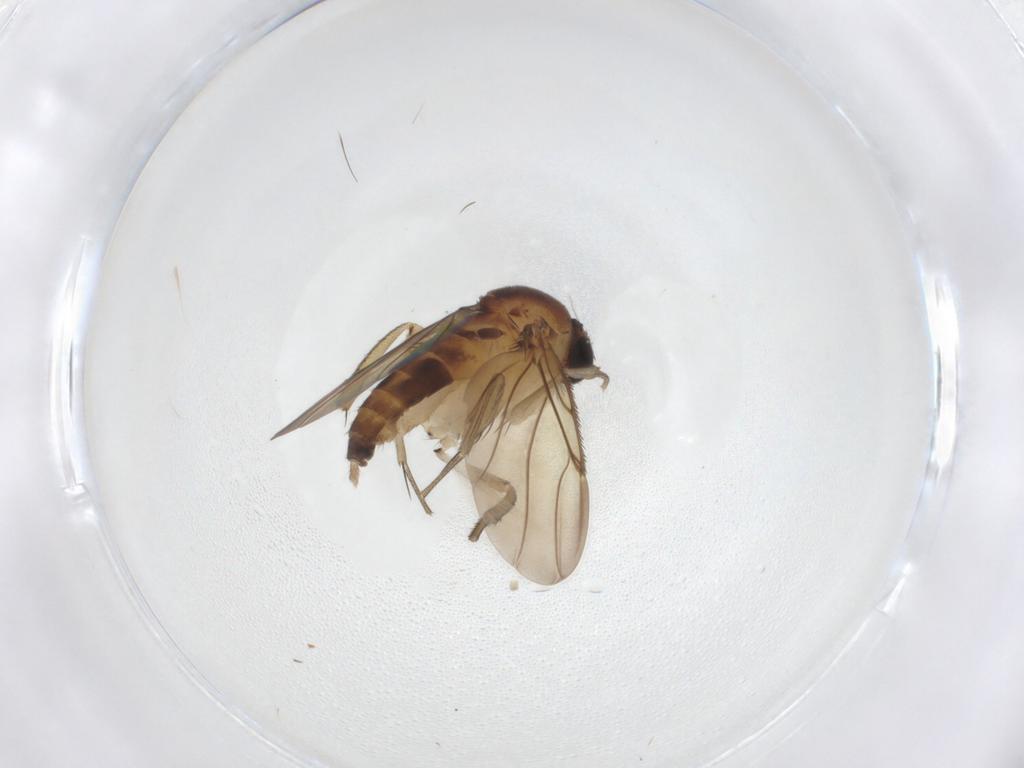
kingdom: Animalia
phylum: Arthropoda
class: Insecta
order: Diptera
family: Phoridae
